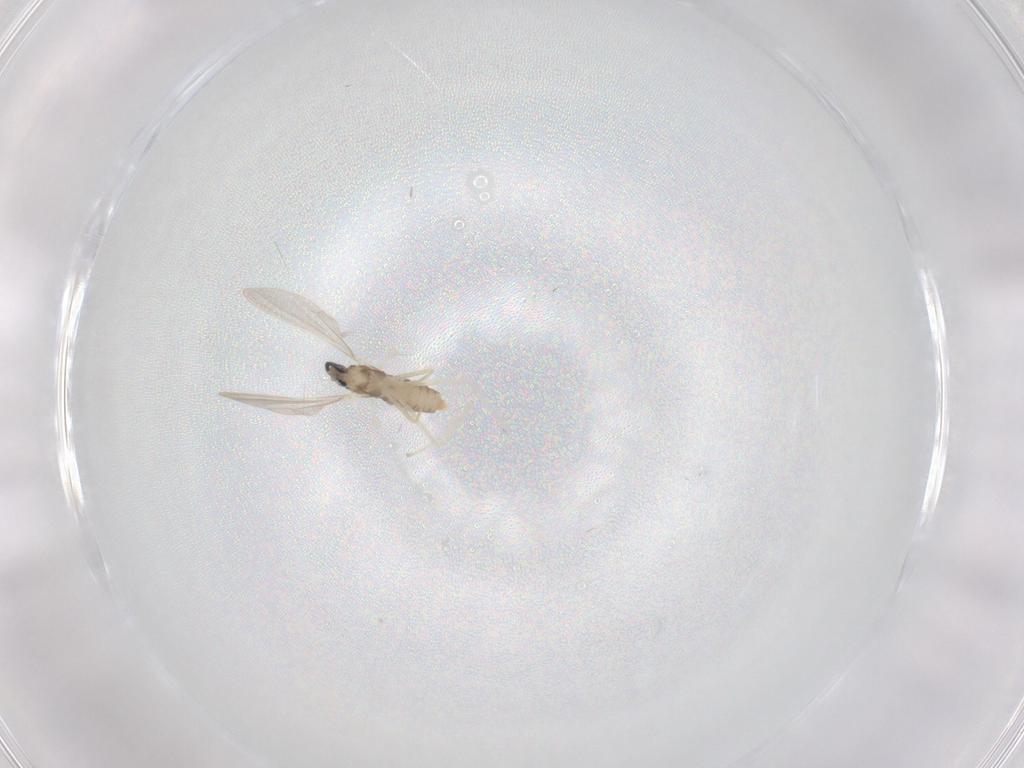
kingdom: Animalia
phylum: Arthropoda
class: Insecta
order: Diptera
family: Cecidomyiidae
